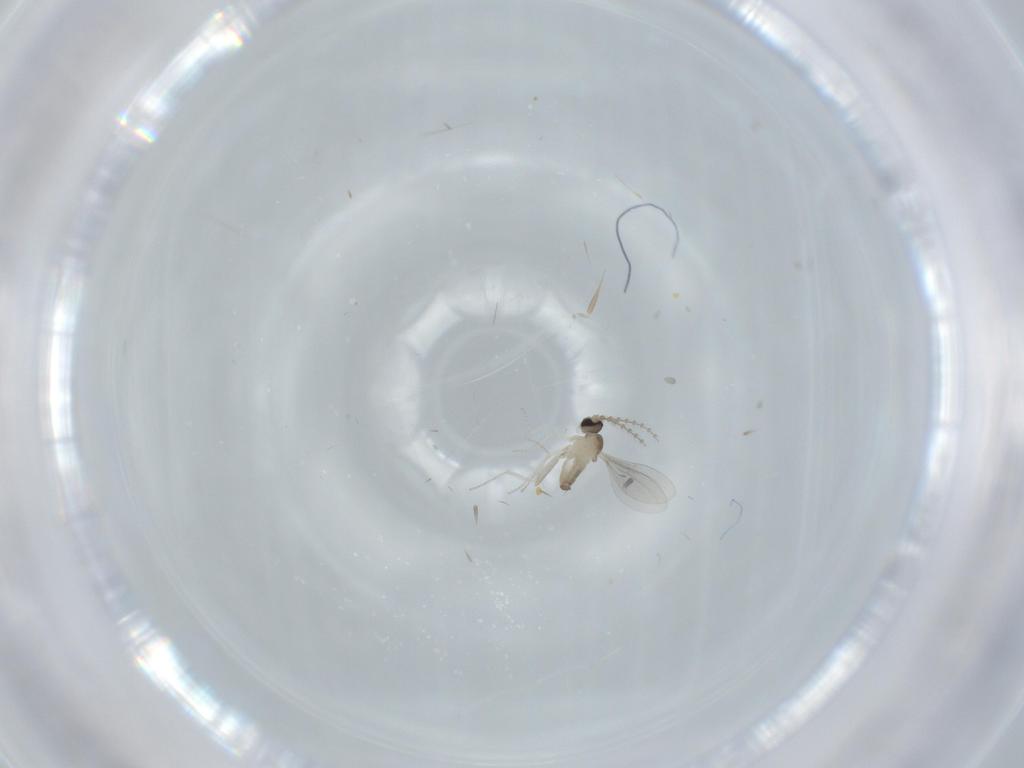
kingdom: Animalia
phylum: Arthropoda
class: Insecta
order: Diptera
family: Cecidomyiidae
